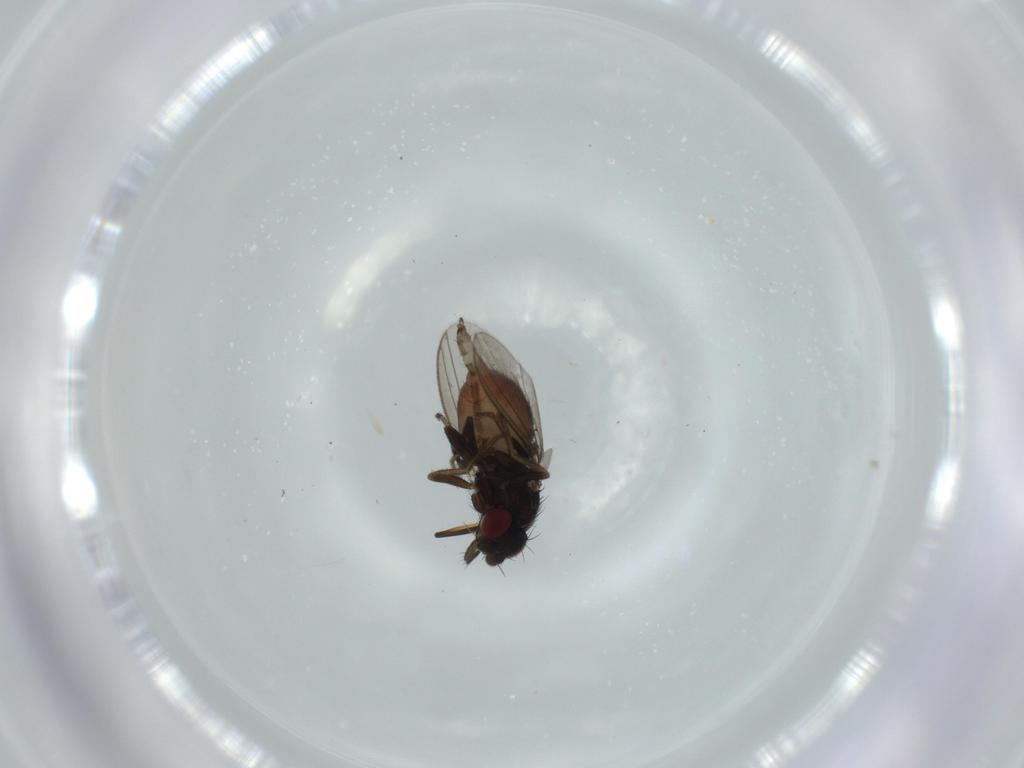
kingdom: Animalia
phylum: Arthropoda
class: Insecta
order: Diptera
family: Milichiidae
